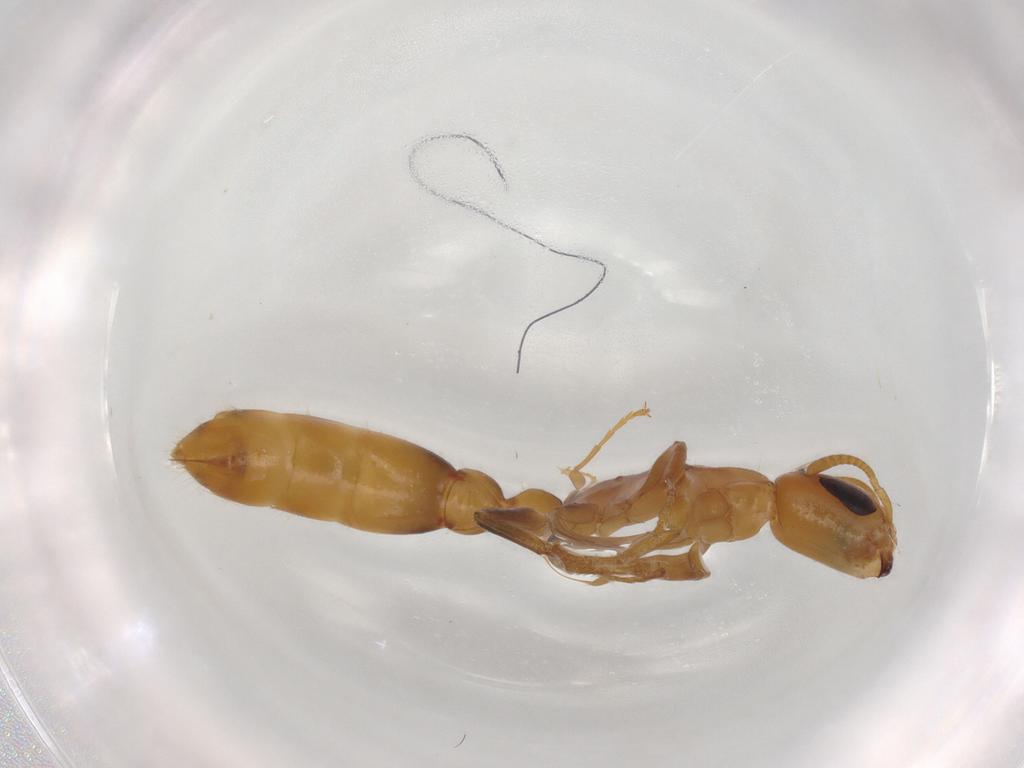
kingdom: Animalia
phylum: Arthropoda
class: Insecta
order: Hymenoptera
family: Formicidae
